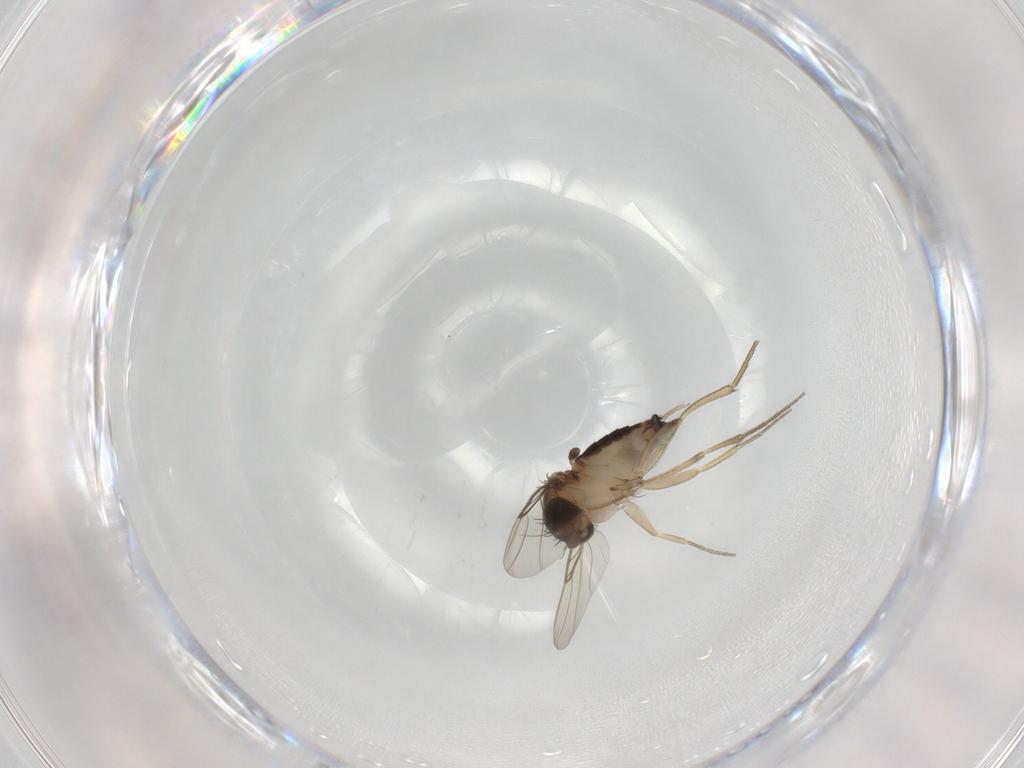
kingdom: Animalia
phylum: Arthropoda
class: Insecta
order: Diptera
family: Phoridae
